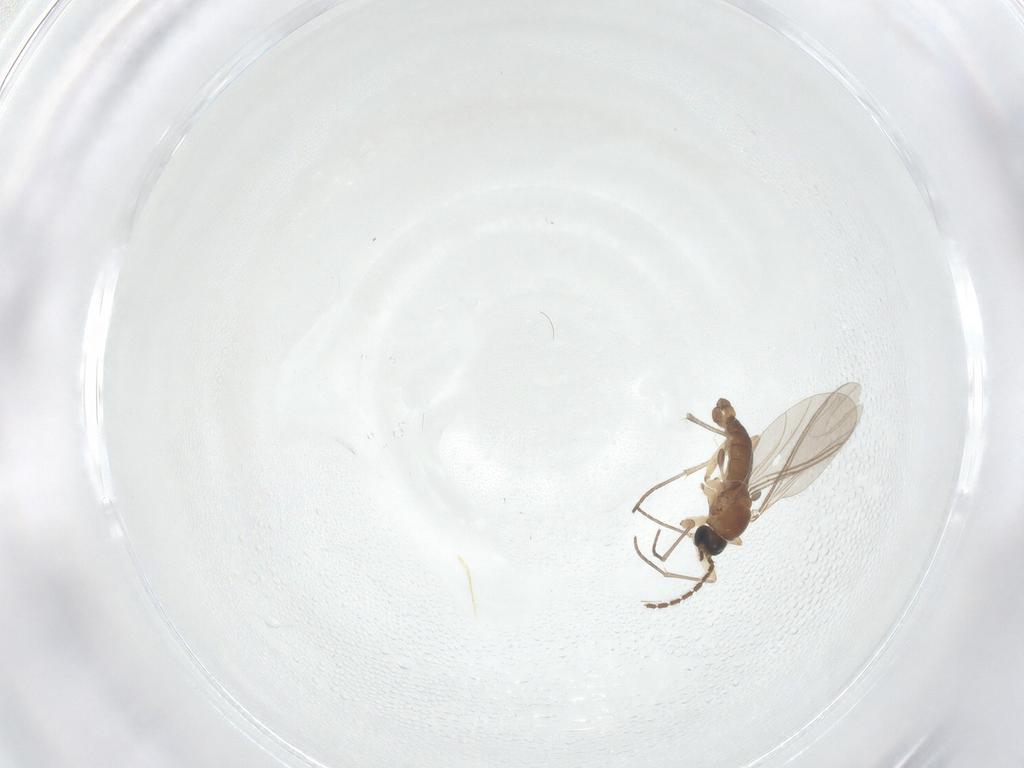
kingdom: Animalia
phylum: Arthropoda
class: Insecta
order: Diptera
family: Sciaridae
